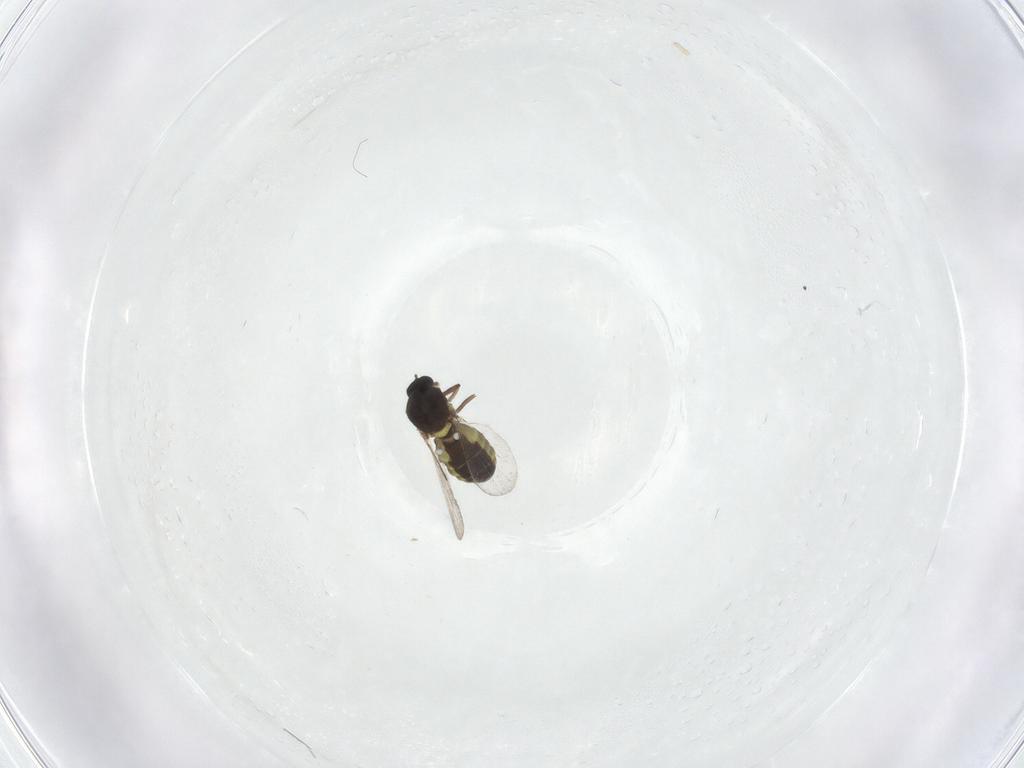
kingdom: Animalia
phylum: Arthropoda
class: Insecta
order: Diptera
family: Ceratopogonidae
